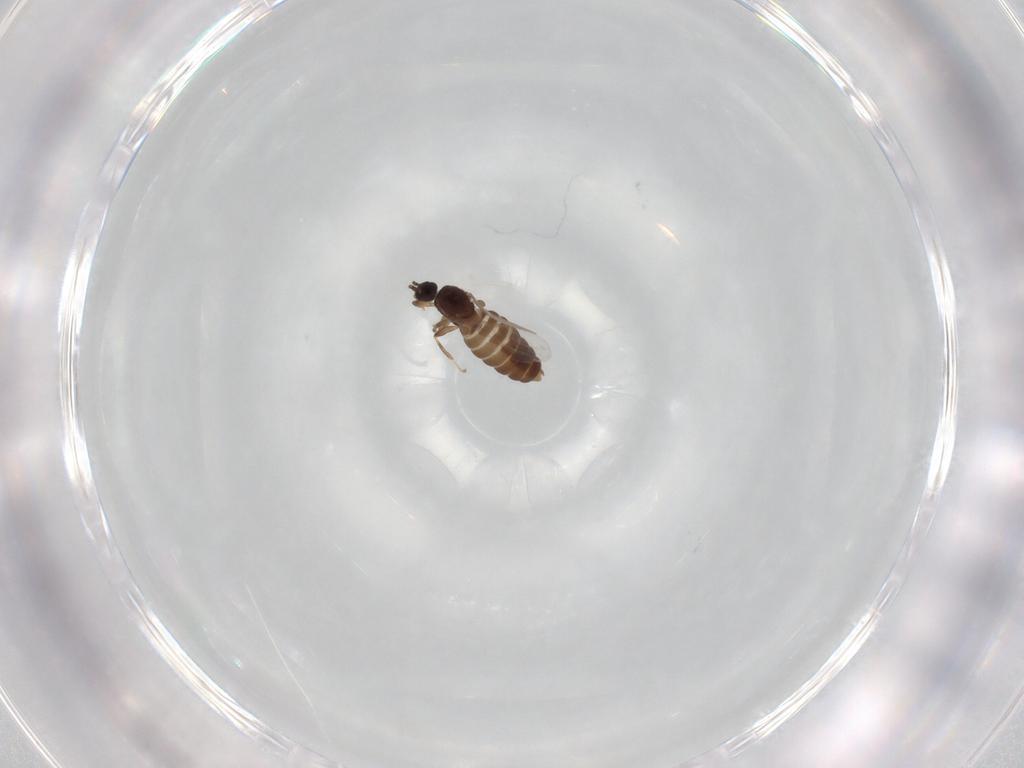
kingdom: Animalia
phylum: Arthropoda
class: Insecta
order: Diptera
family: Scatopsidae
